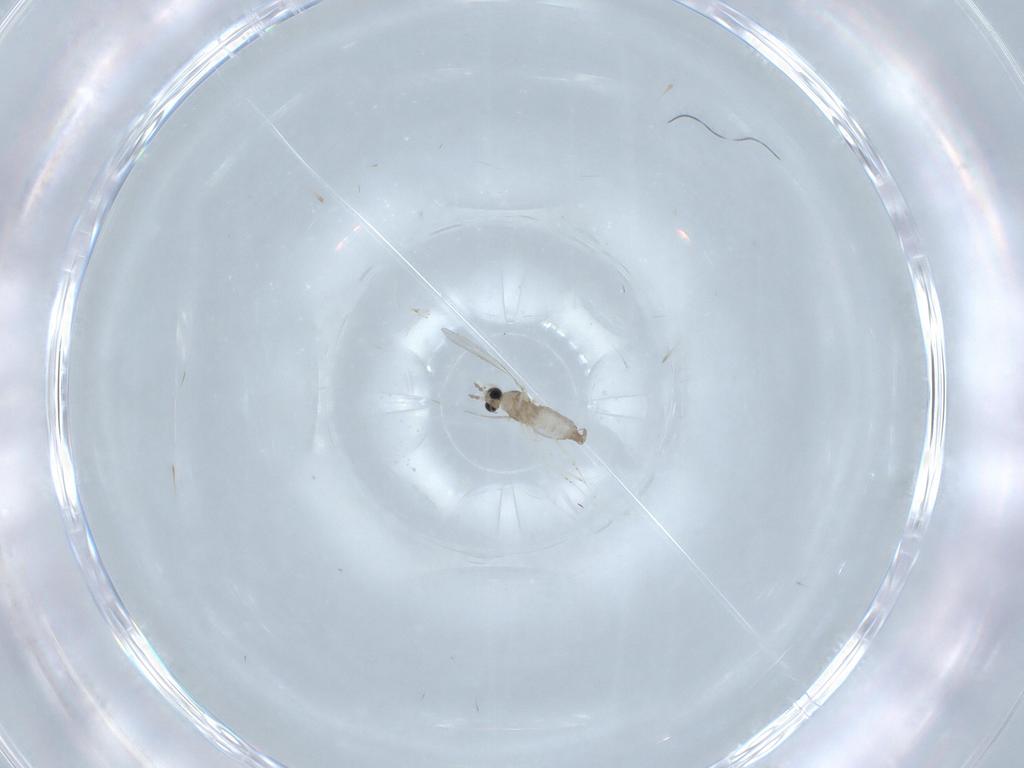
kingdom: Animalia
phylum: Arthropoda
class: Insecta
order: Diptera
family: Cecidomyiidae
